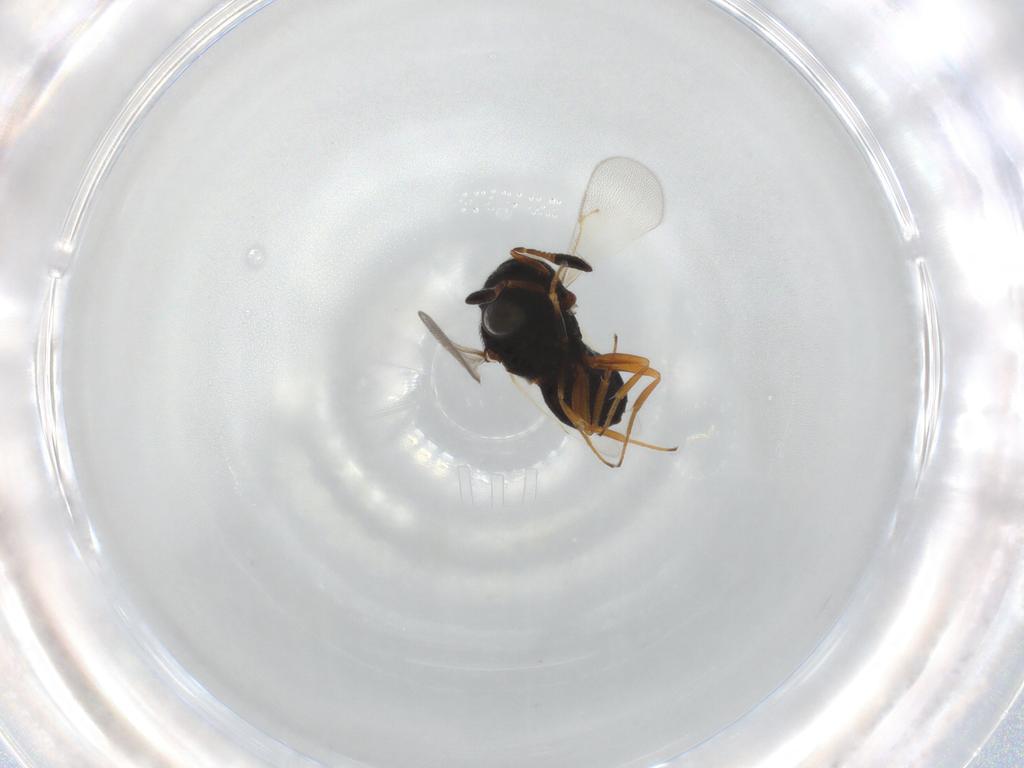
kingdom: Animalia
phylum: Arthropoda
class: Insecta
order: Hymenoptera
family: Scelionidae
